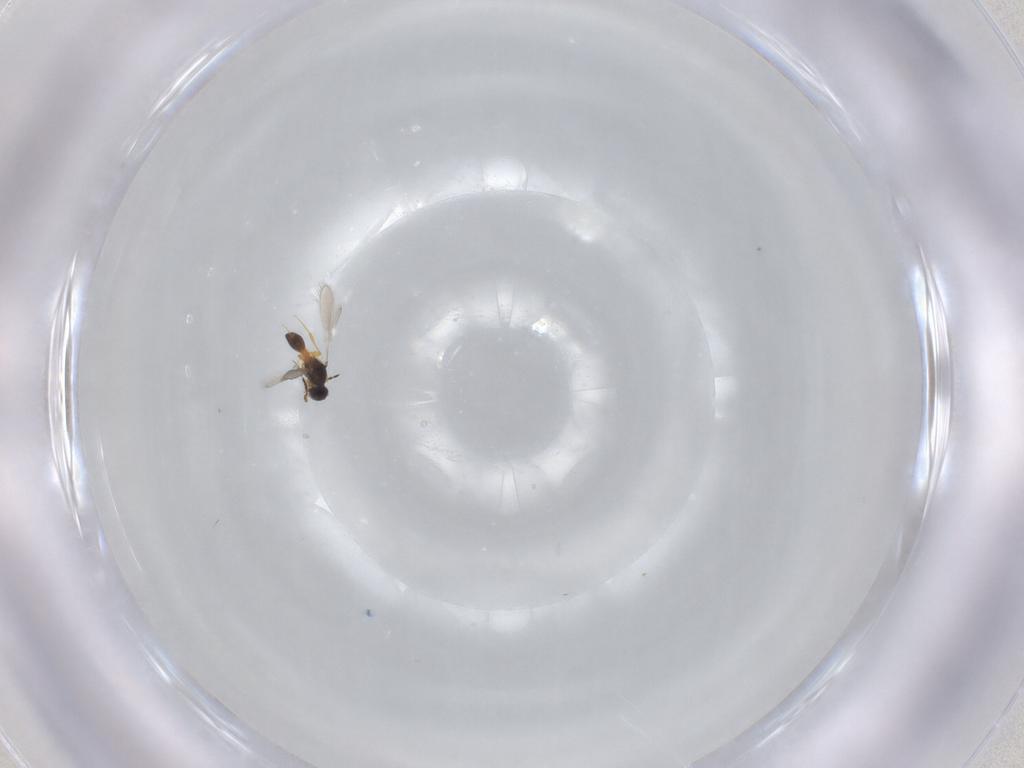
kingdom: Animalia
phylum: Arthropoda
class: Insecta
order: Hymenoptera
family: Platygastridae
